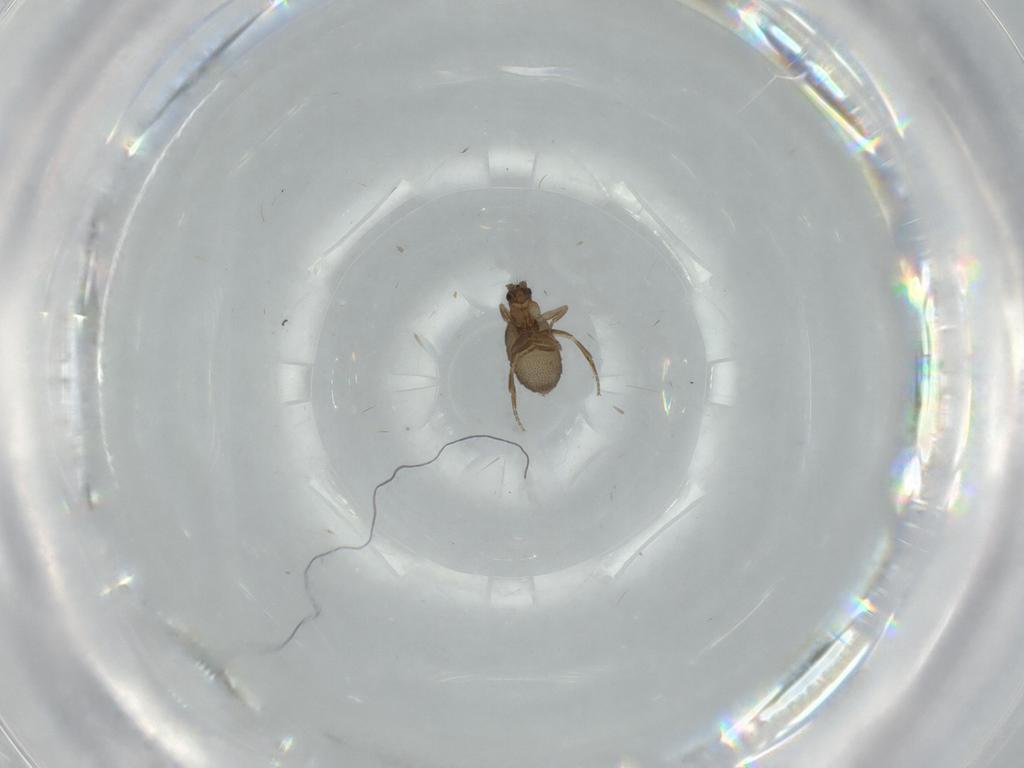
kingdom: Animalia
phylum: Arthropoda
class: Insecta
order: Diptera
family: Phoridae
